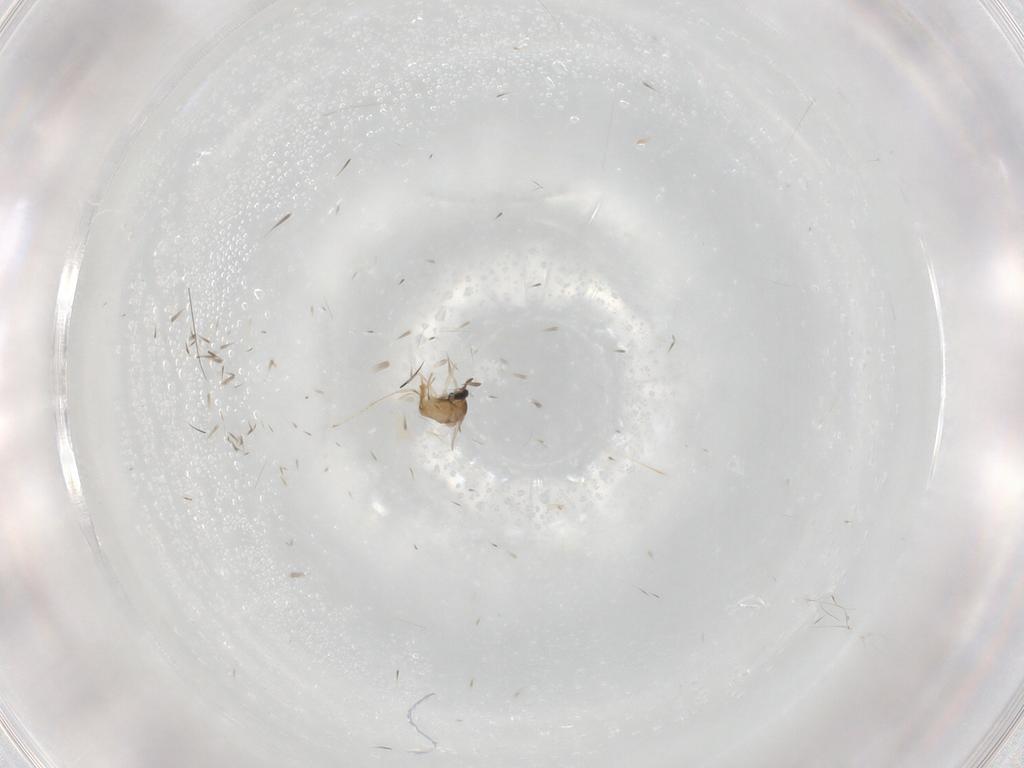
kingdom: Animalia
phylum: Arthropoda
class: Insecta
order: Diptera
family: Cecidomyiidae
